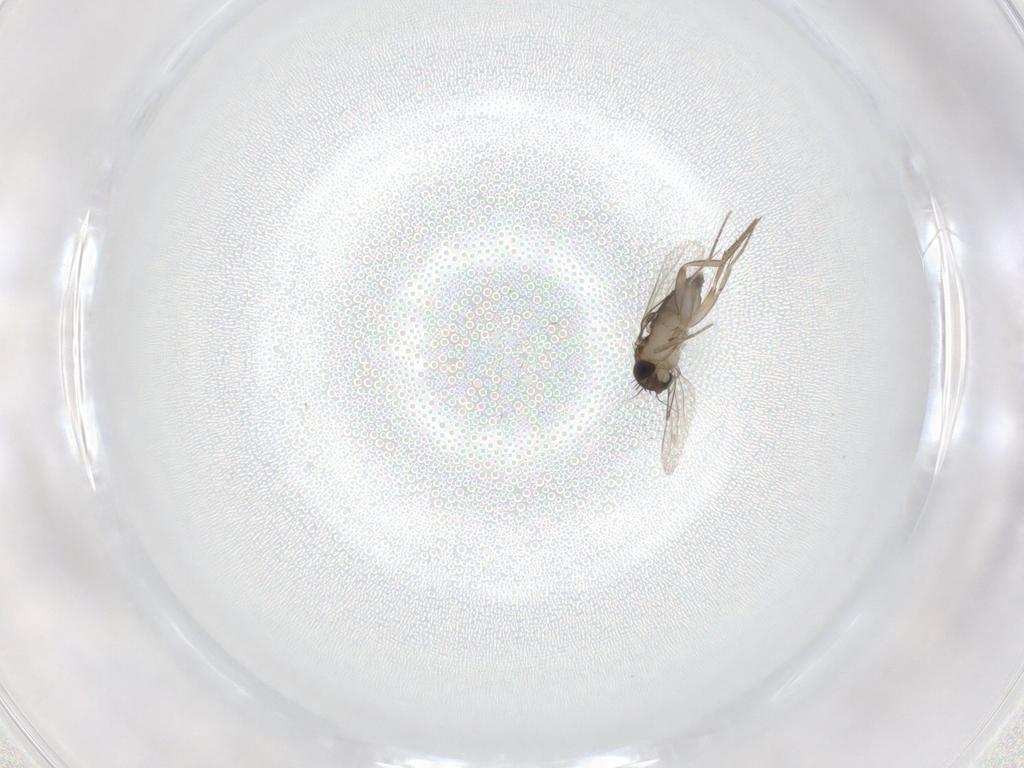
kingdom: Animalia
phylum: Arthropoda
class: Insecta
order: Diptera
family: Phoridae
